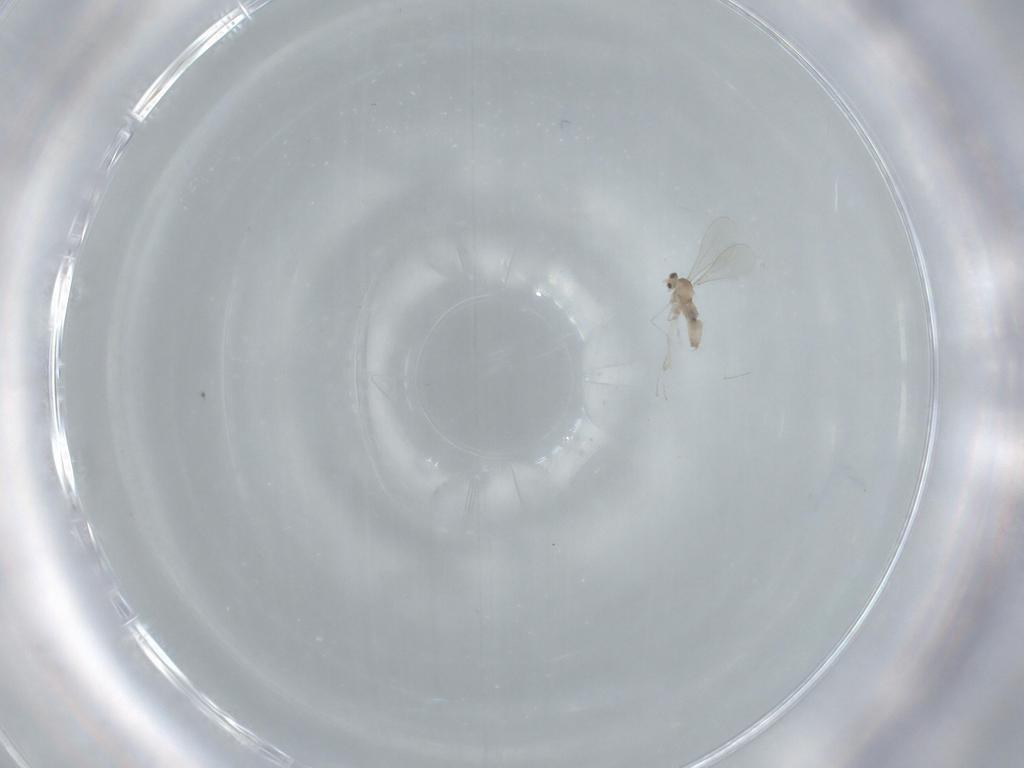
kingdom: Animalia
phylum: Arthropoda
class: Insecta
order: Diptera
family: Cecidomyiidae
